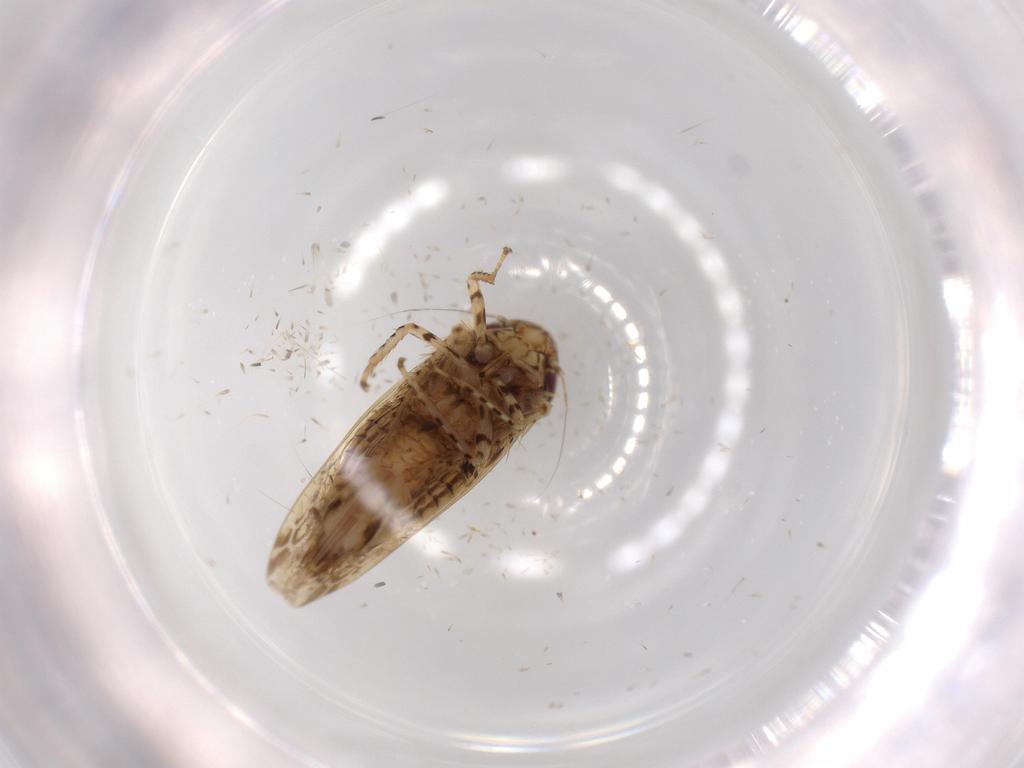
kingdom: Animalia
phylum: Arthropoda
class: Insecta
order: Hemiptera
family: Cicadellidae
